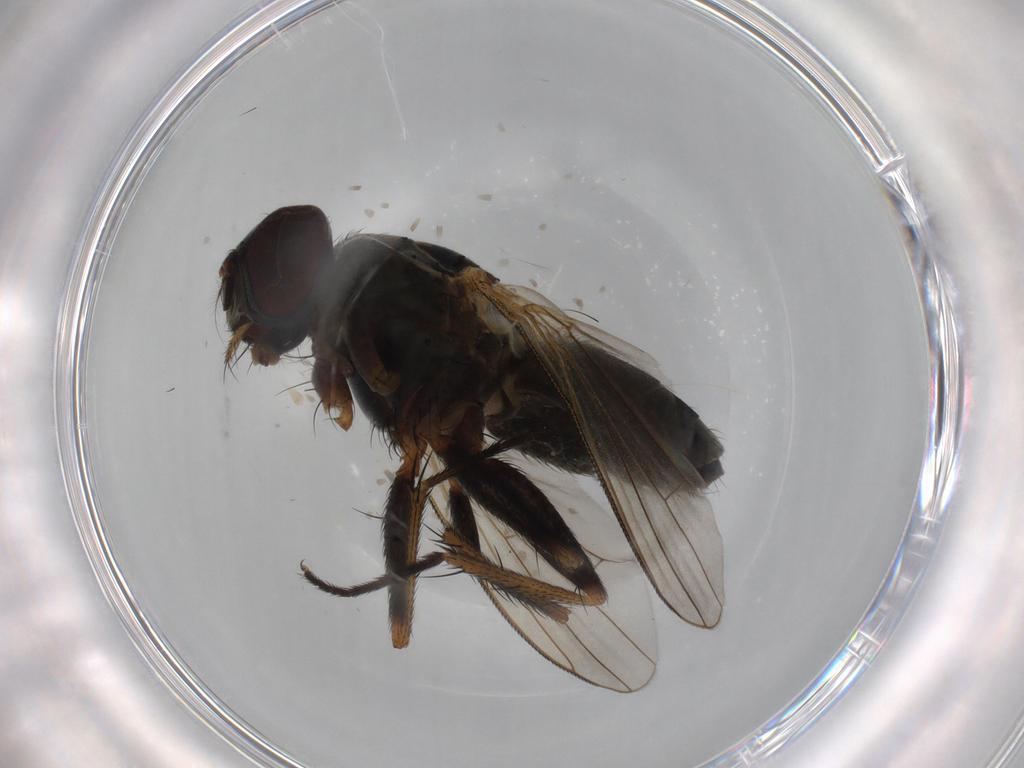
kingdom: Animalia
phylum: Arthropoda
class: Insecta
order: Diptera
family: Muscidae
